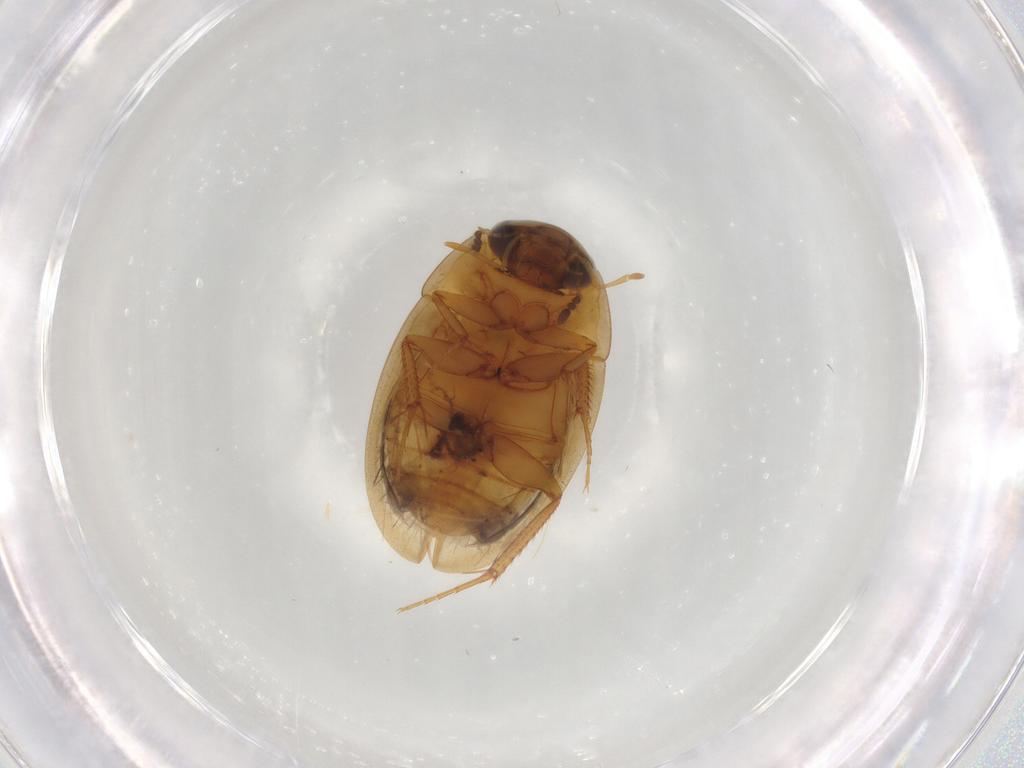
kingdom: Animalia
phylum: Arthropoda
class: Insecta
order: Coleoptera
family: Hydrophilidae
